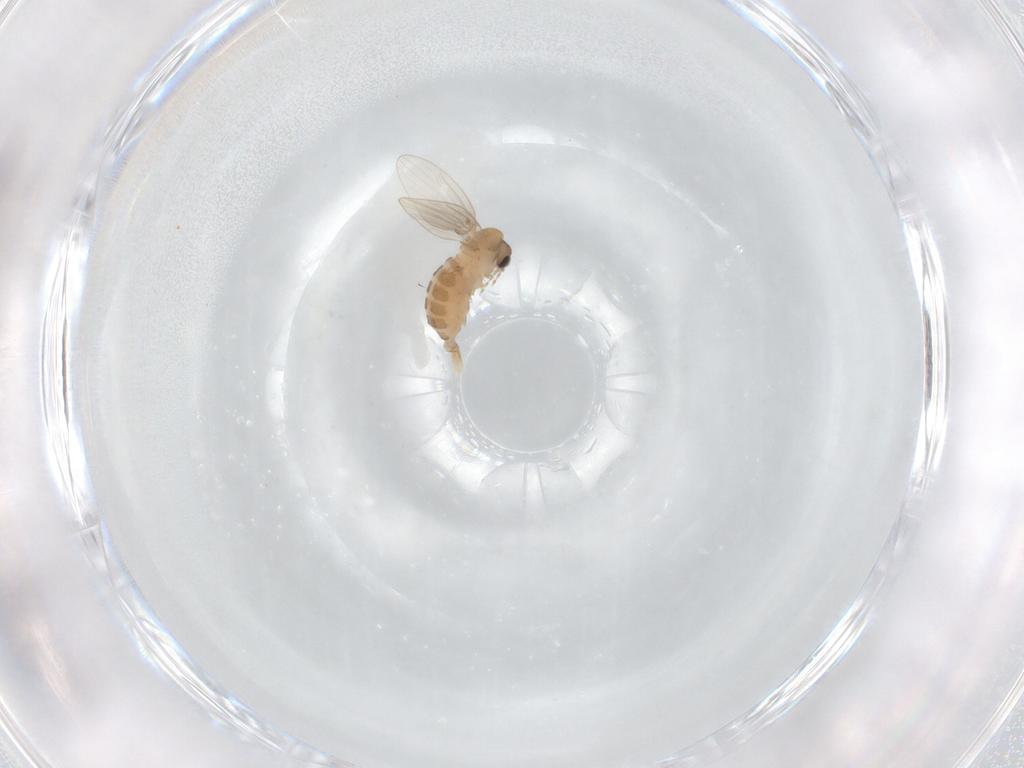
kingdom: Animalia
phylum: Arthropoda
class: Insecta
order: Diptera
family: Psychodidae
